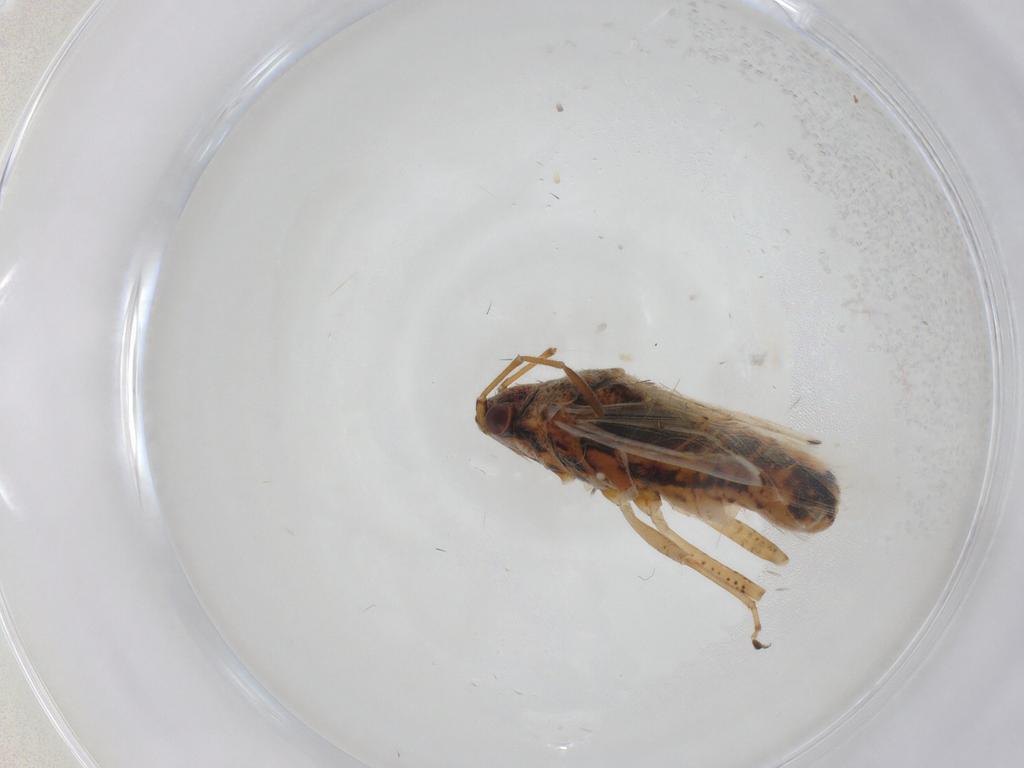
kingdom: Animalia
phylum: Arthropoda
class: Insecta
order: Hemiptera
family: Lygaeidae
